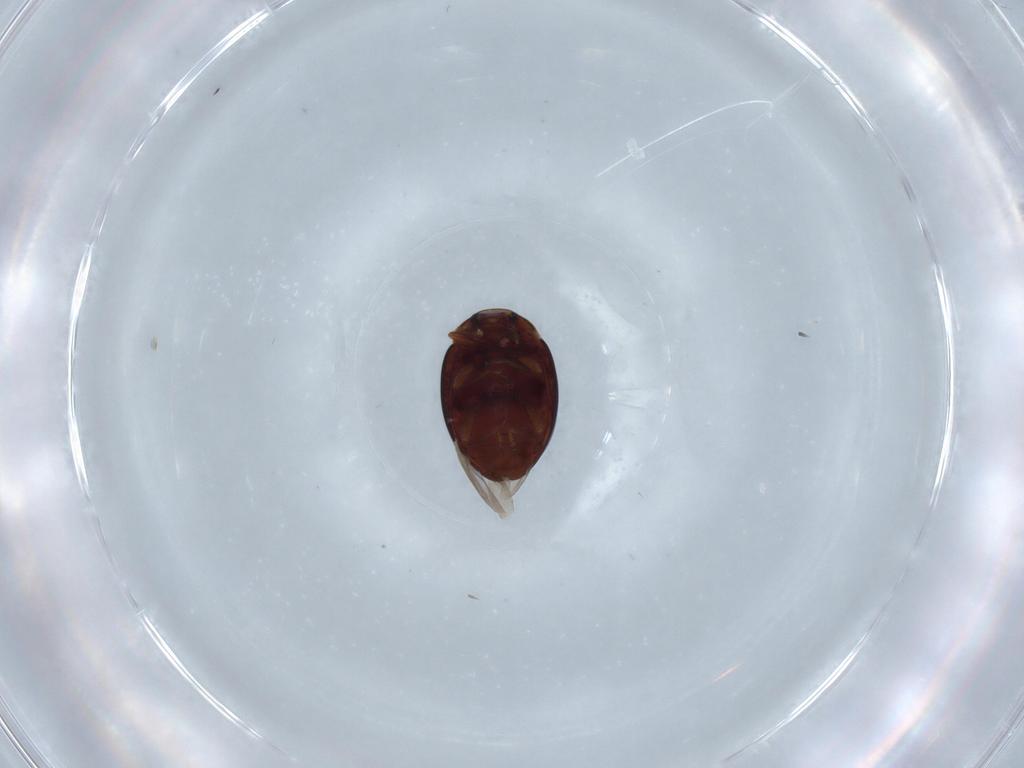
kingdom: Animalia
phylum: Arthropoda
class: Insecta
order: Coleoptera
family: Coccinellidae
